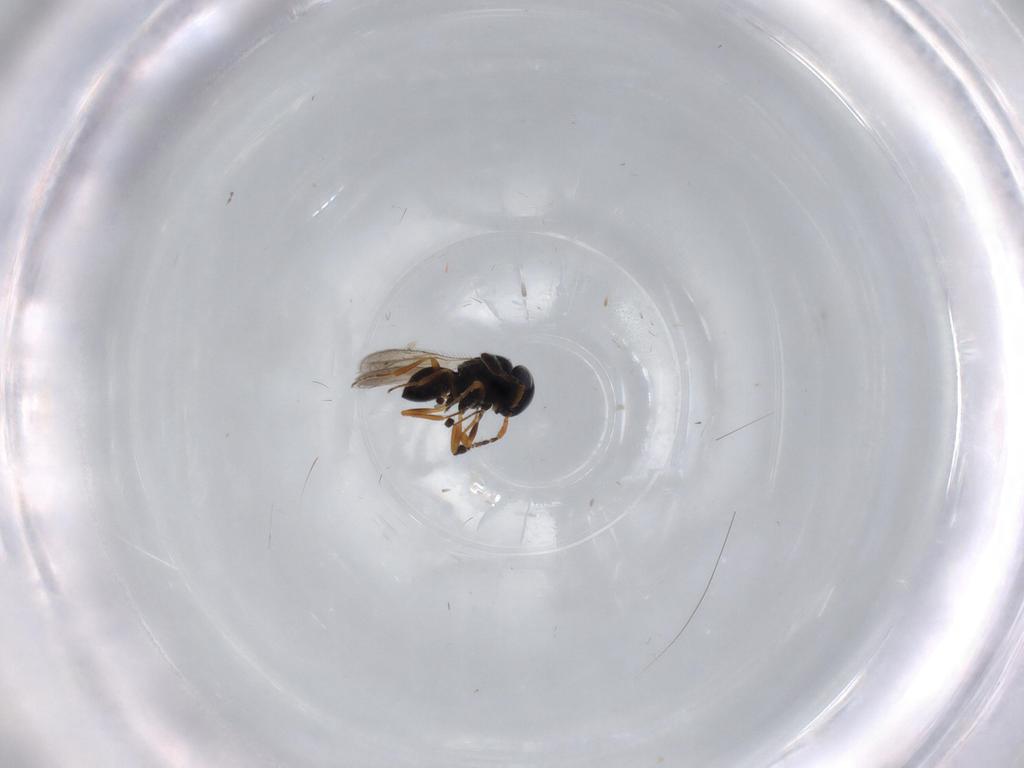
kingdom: Animalia
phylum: Arthropoda
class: Insecta
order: Hymenoptera
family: Scelionidae
